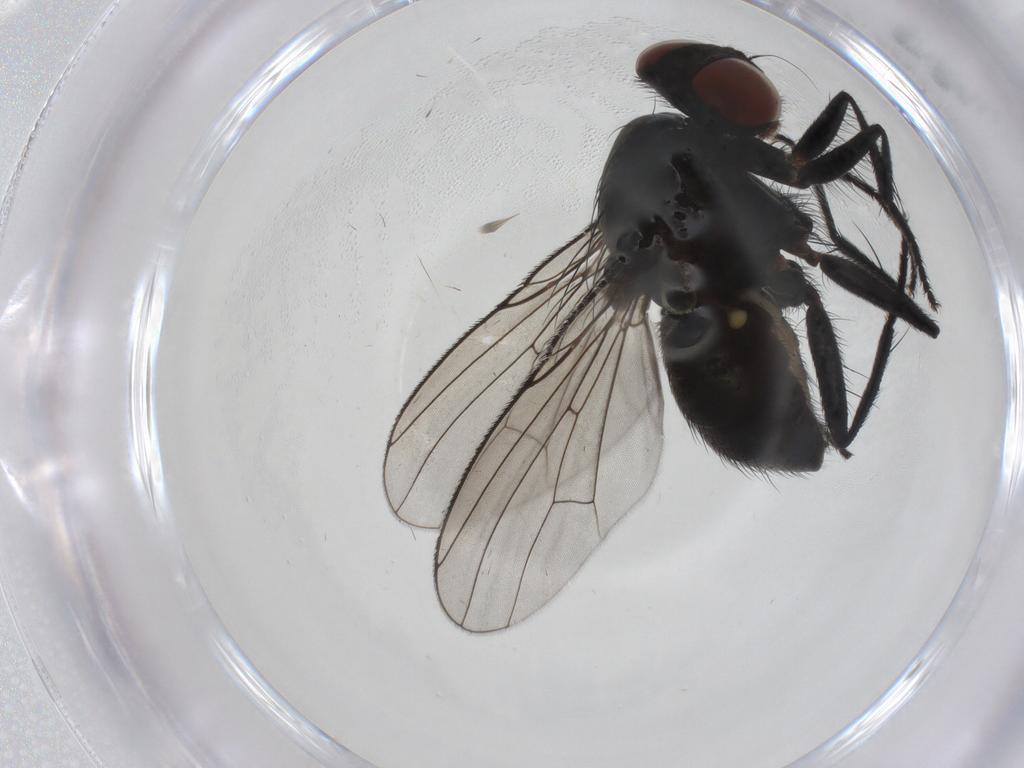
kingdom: Animalia
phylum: Arthropoda
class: Insecta
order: Diptera
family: Muscidae
